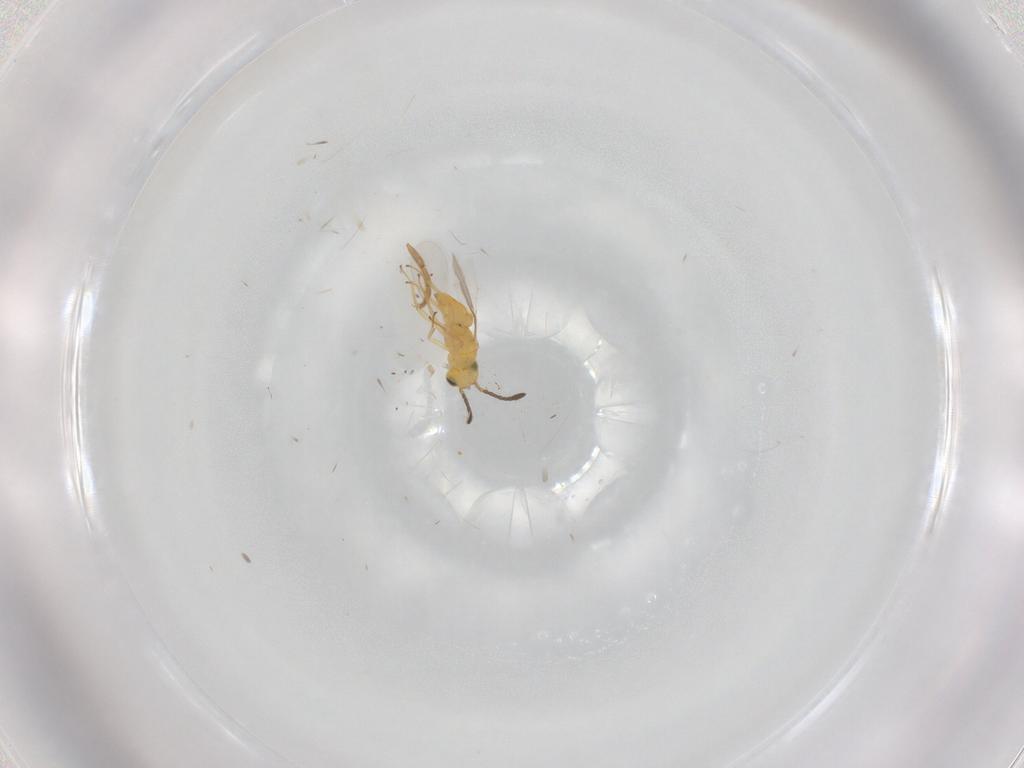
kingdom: Animalia
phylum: Arthropoda
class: Insecta
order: Hymenoptera
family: Encyrtidae
